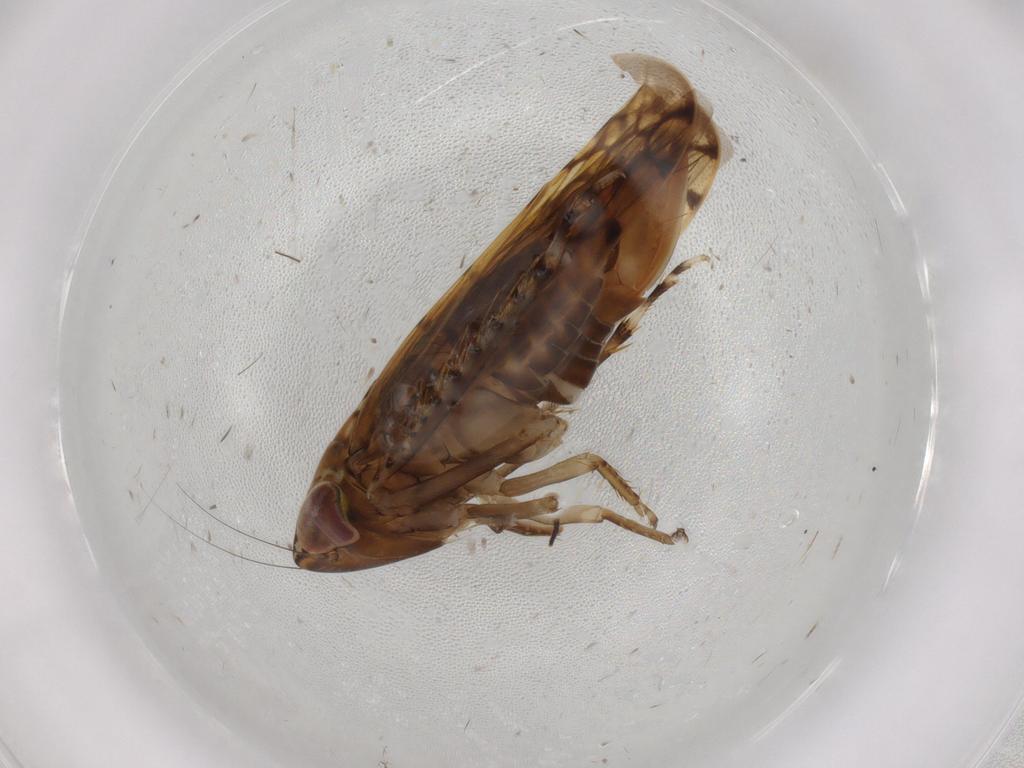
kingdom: Animalia
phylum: Arthropoda
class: Insecta
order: Hemiptera
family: Cicadellidae
